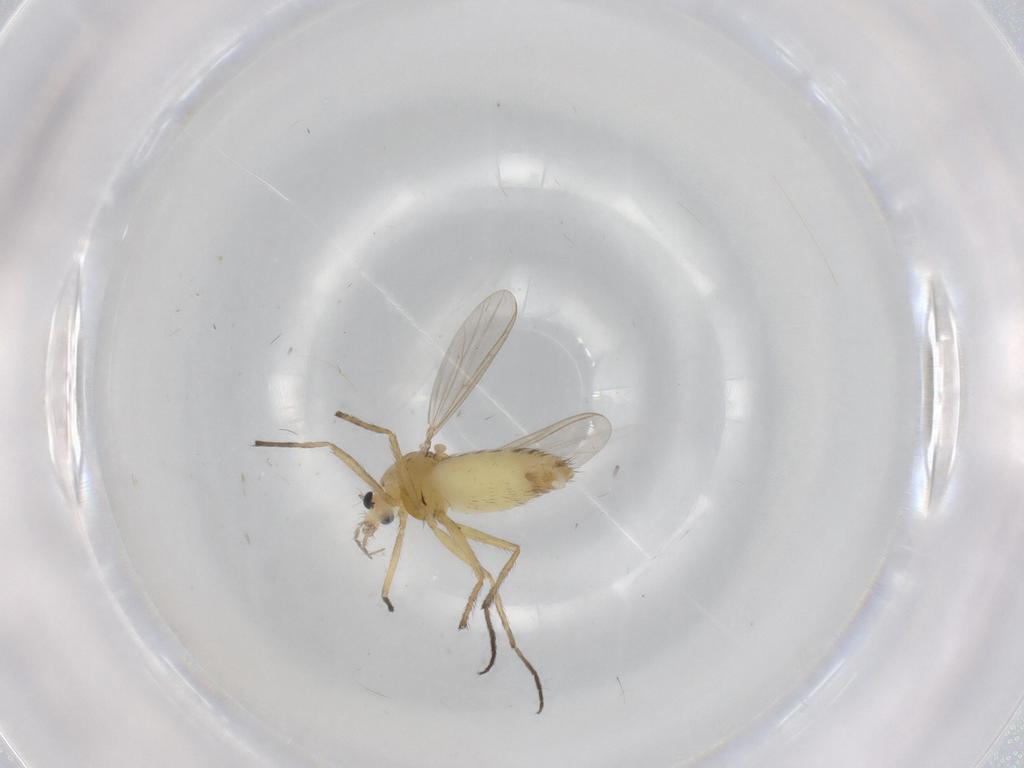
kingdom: Animalia
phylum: Arthropoda
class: Insecta
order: Diptera
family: Chironomidae
